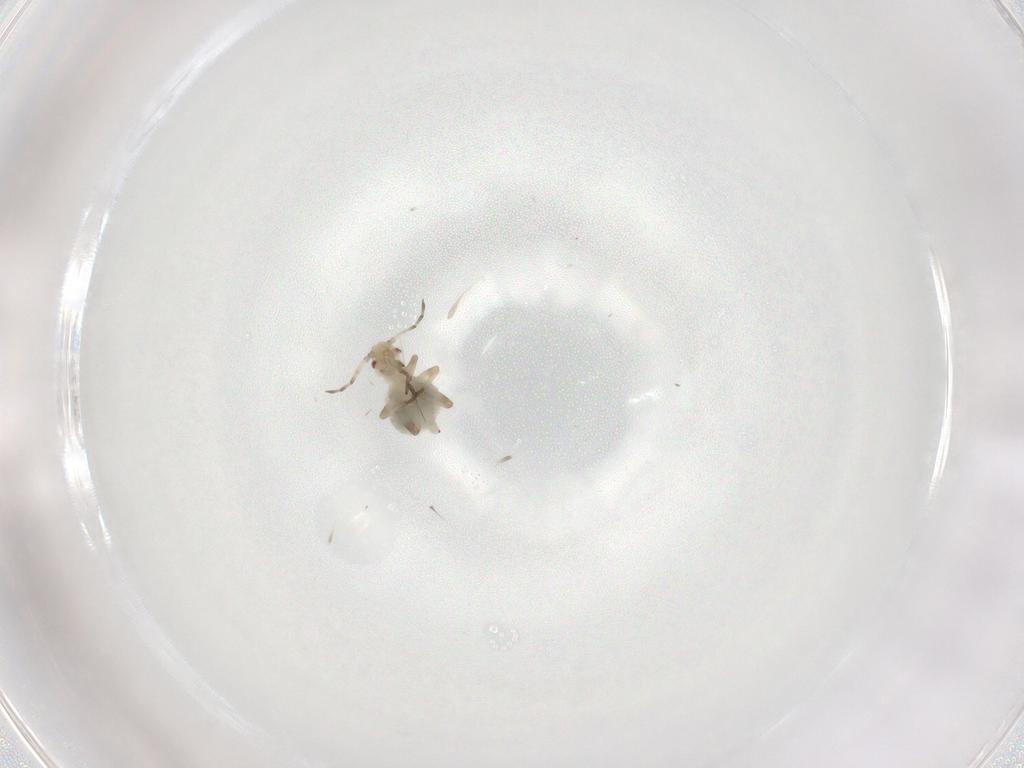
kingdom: Animalia
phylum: Arthropoda
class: Insecta
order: Hemiptera
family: Aphididae
